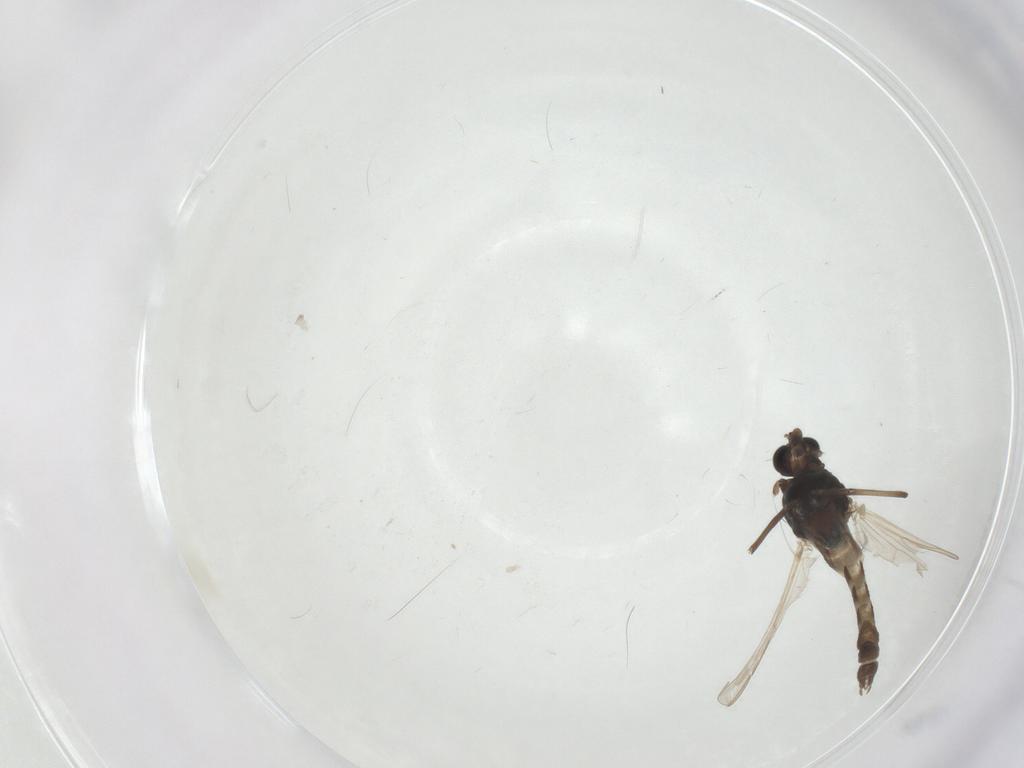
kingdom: Animalia
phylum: Arthropoda
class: Insecta
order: Diptera
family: Chironomidae
